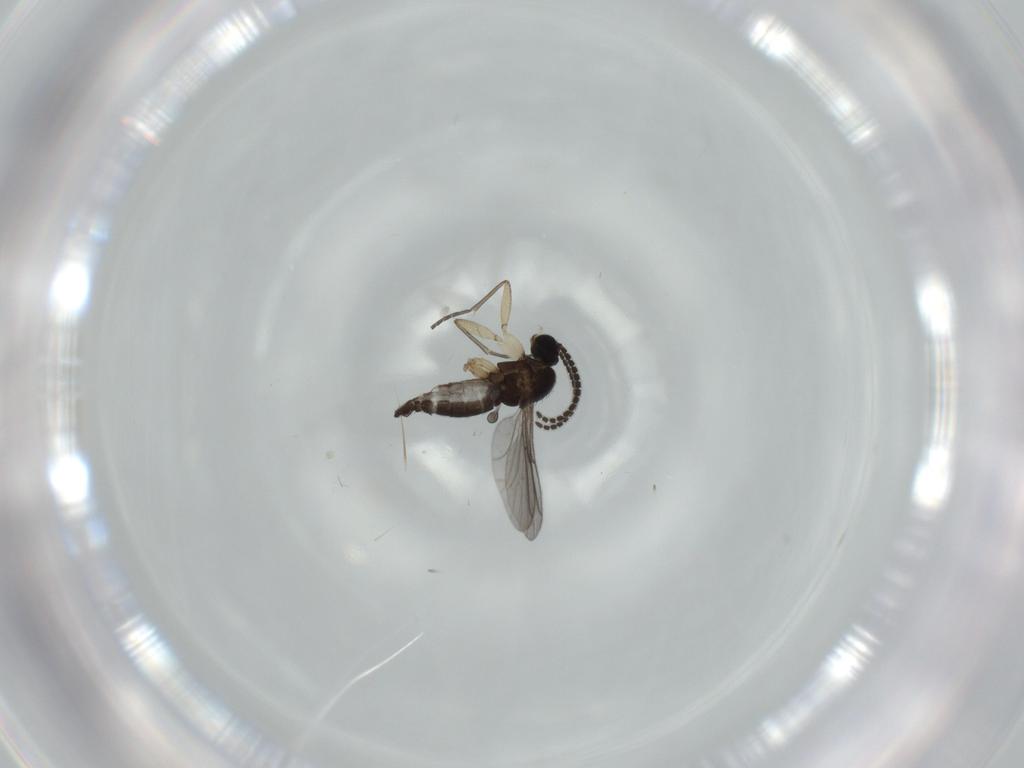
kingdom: Animalia
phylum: Arthropoda
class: Insecta
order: Diptera
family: Sciaridae
